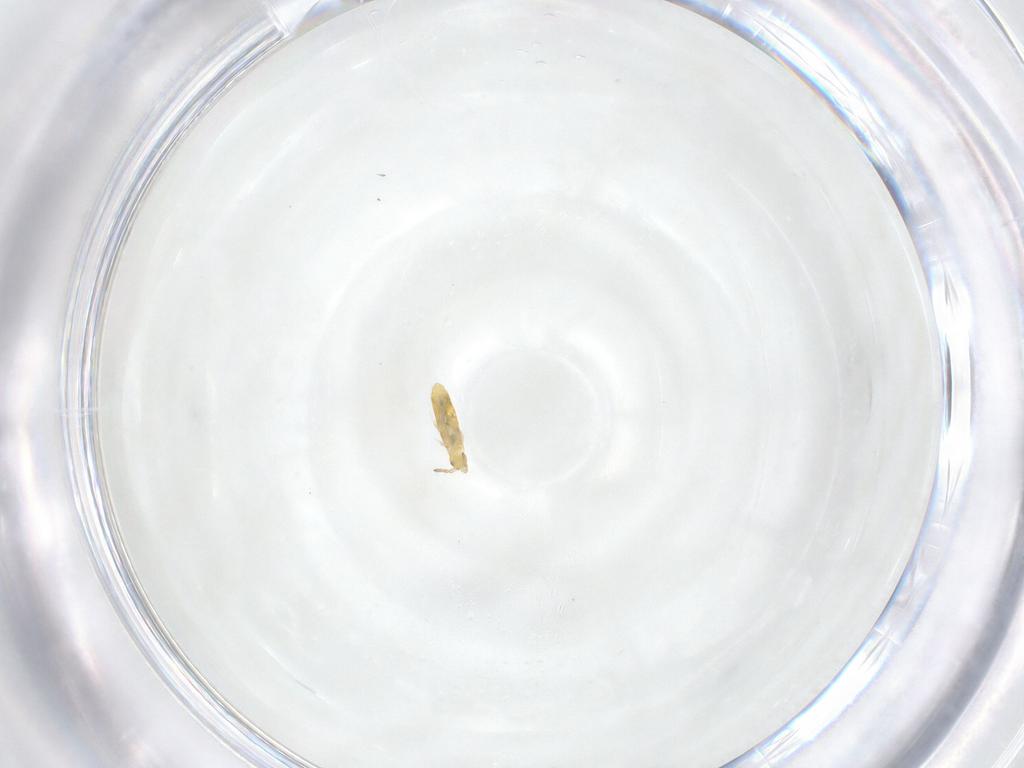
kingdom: Animalia
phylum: Arthropoda
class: Collembola
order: Entomobryomorpha
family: Entomobryidae
